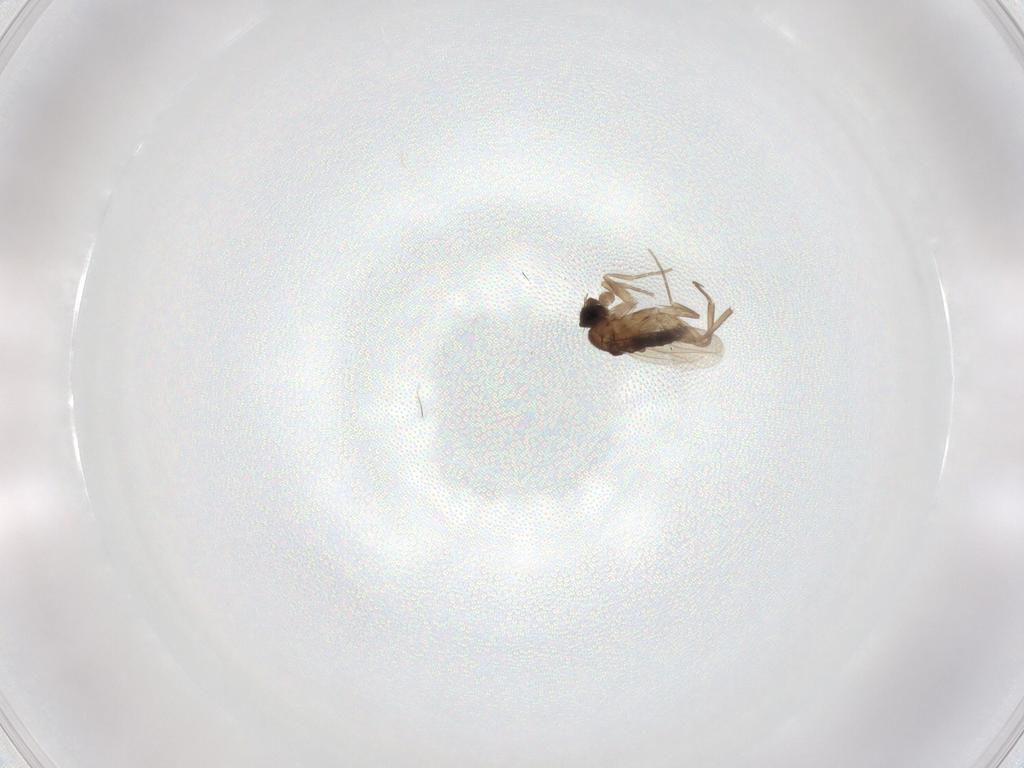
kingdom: Animalia
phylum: Arthropoda
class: Insecta
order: Diptera
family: Phoridae
